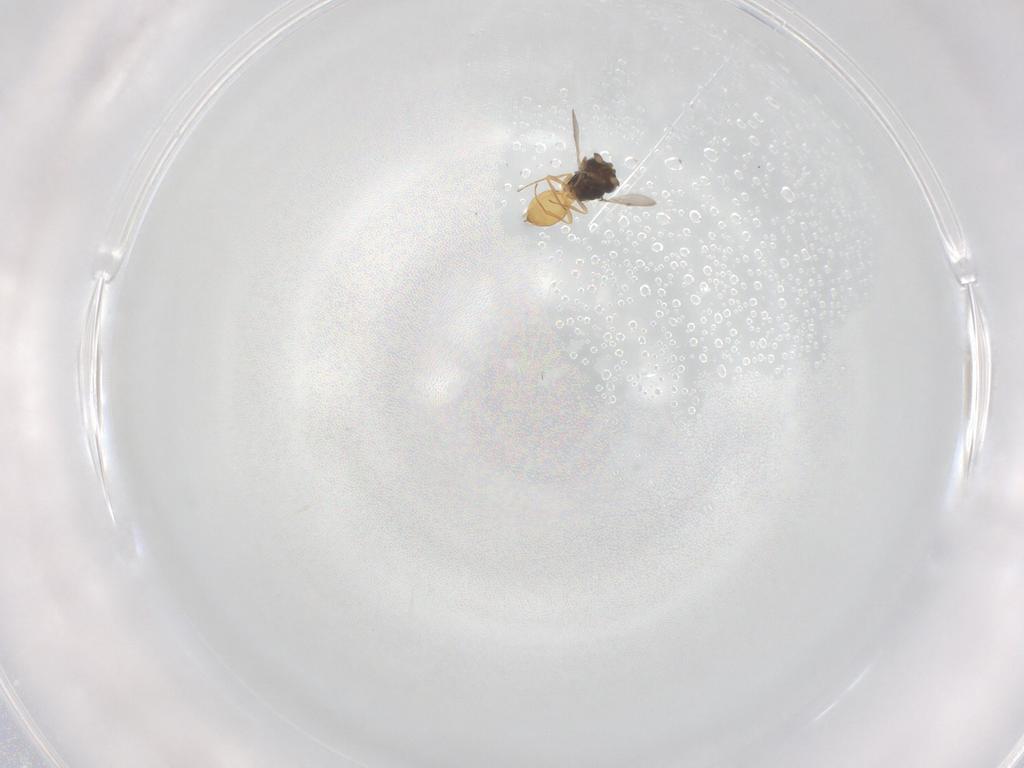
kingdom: Animalia
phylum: Arthropoda
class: Insecta
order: Hymenoptera
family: Scelionidae
